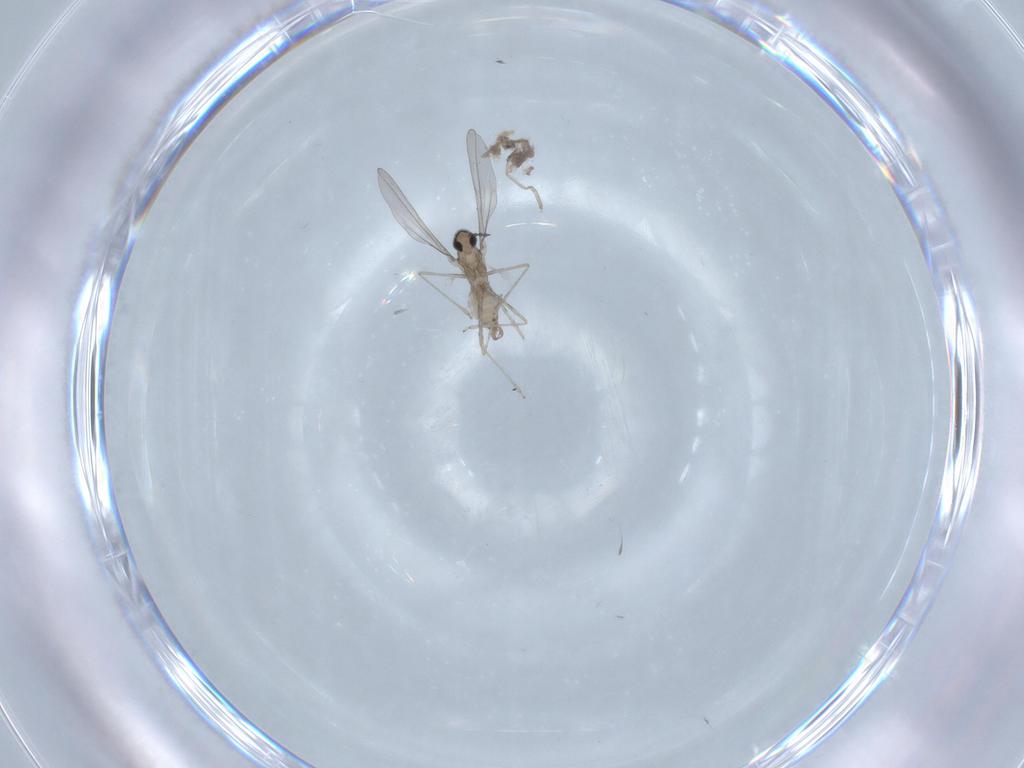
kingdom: Animalia
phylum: Arthropoda
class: Insecta
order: Diptera
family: Cecidomyiidae
